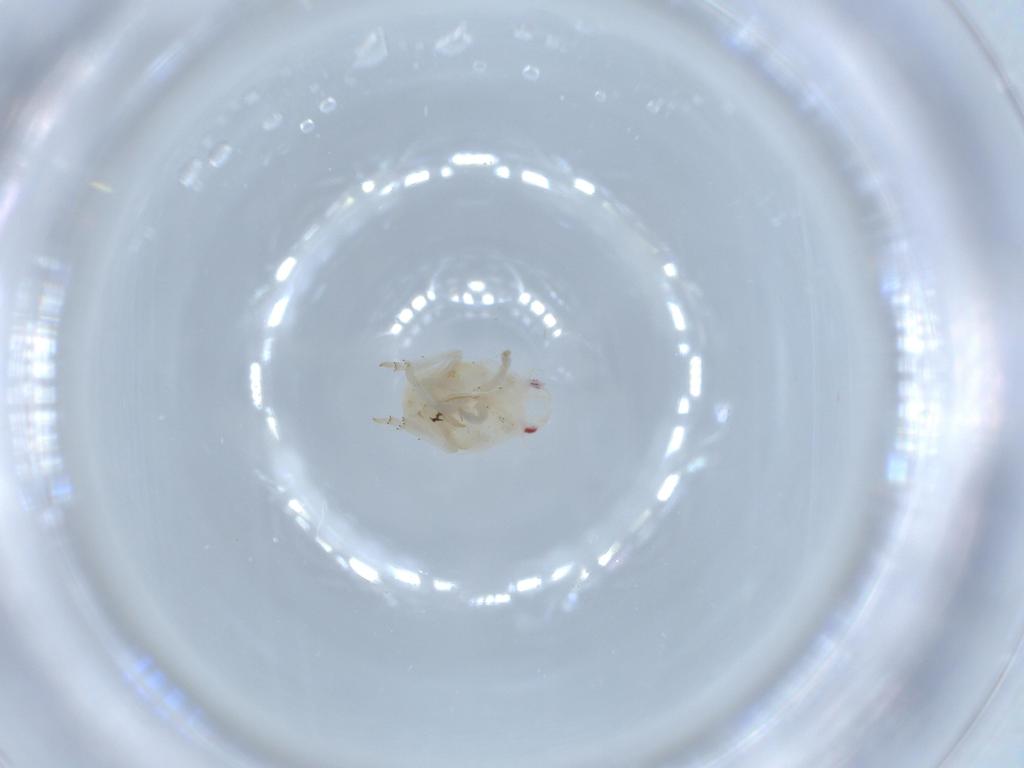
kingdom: Animalia
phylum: Arthropoda
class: Insecta
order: Hemiptera
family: Flatidae
